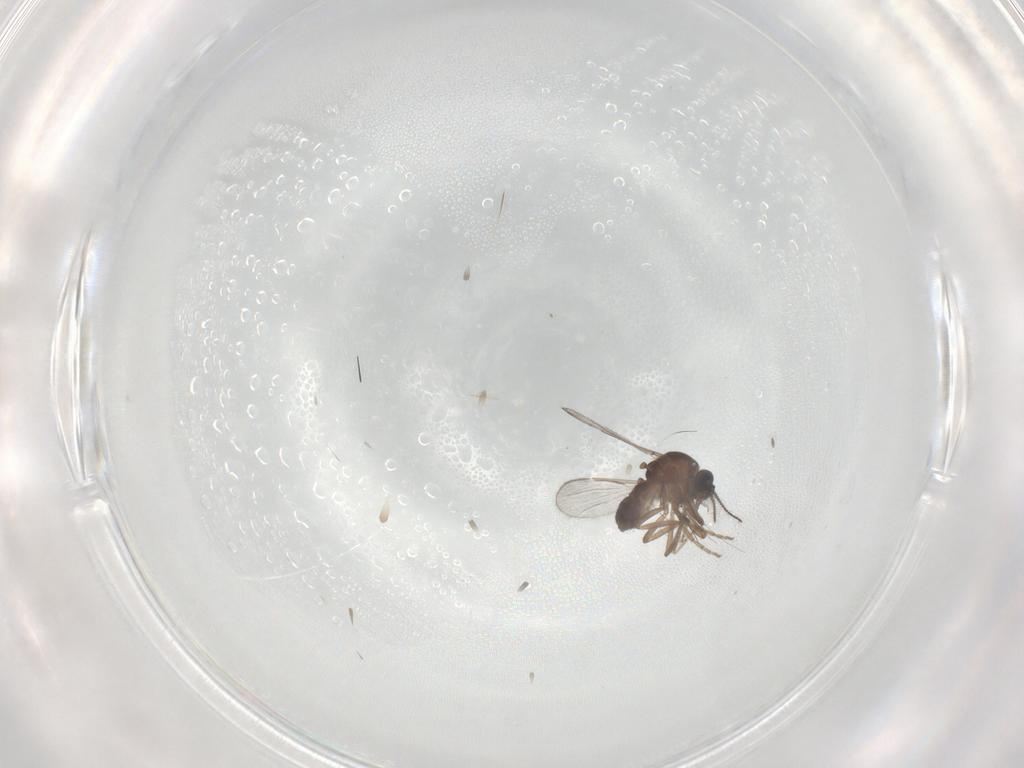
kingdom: Animalia
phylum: Arthropoda
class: Insecta
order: Diptera
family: Ceratopogonidae
